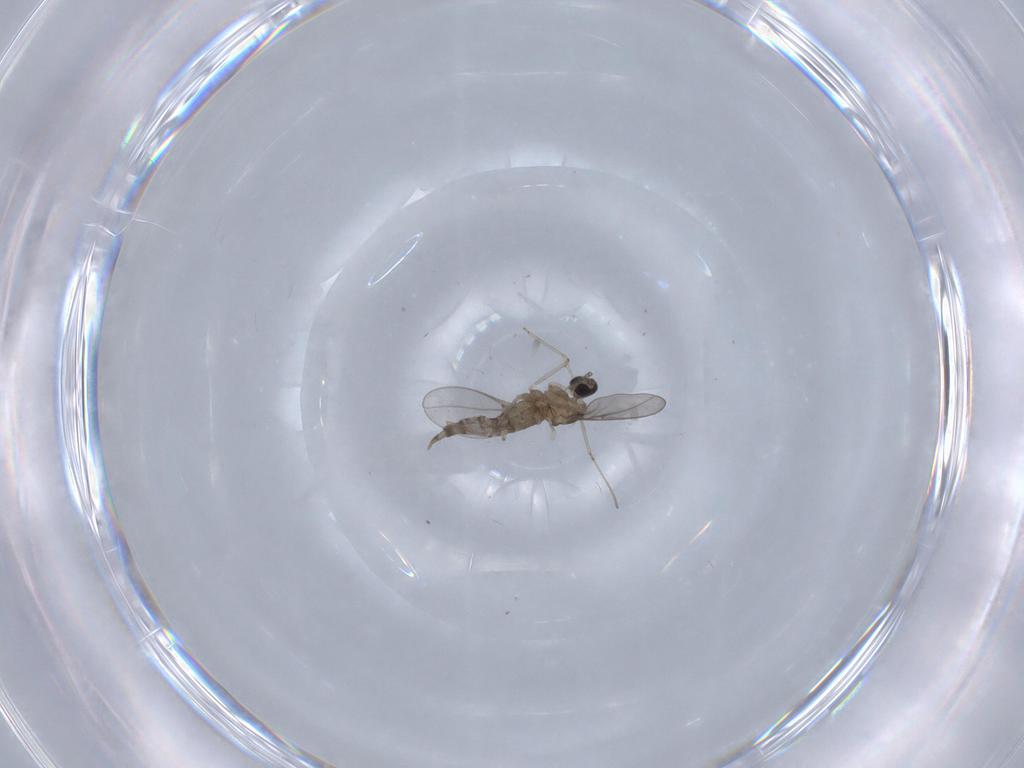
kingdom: Animalia
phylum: Arthropoda
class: Insecta
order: Diptera
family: Cecidomyiidae
